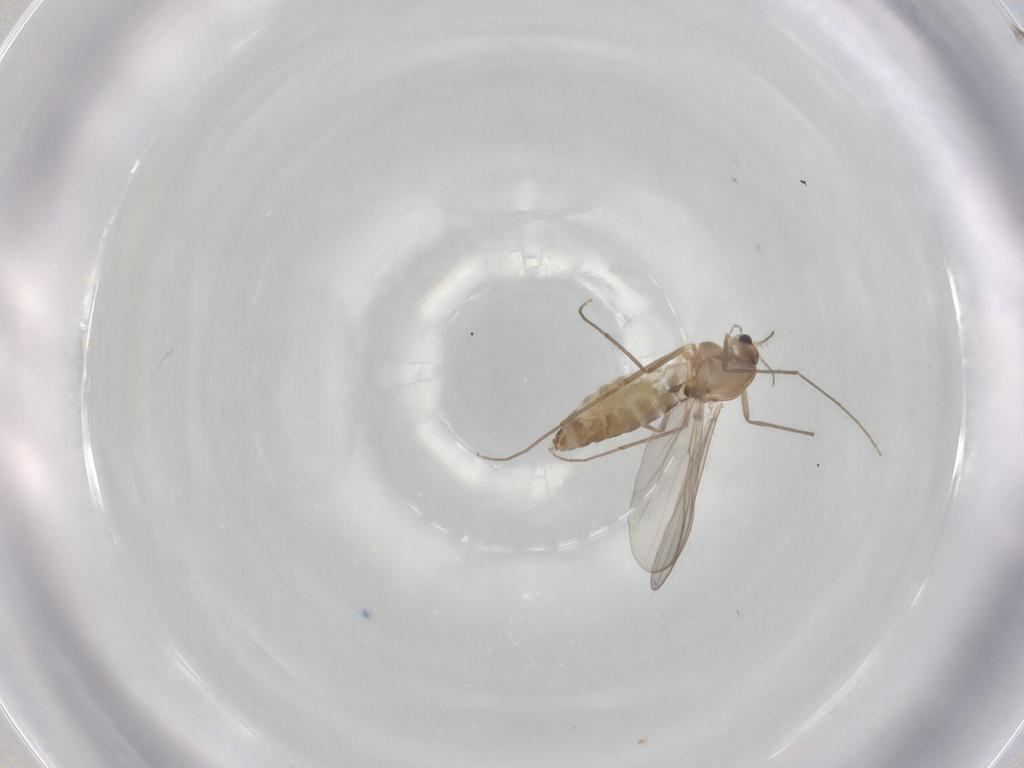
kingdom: Animalia
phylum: Arthropoda
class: Insecta
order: Diptera
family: Chironomidae
